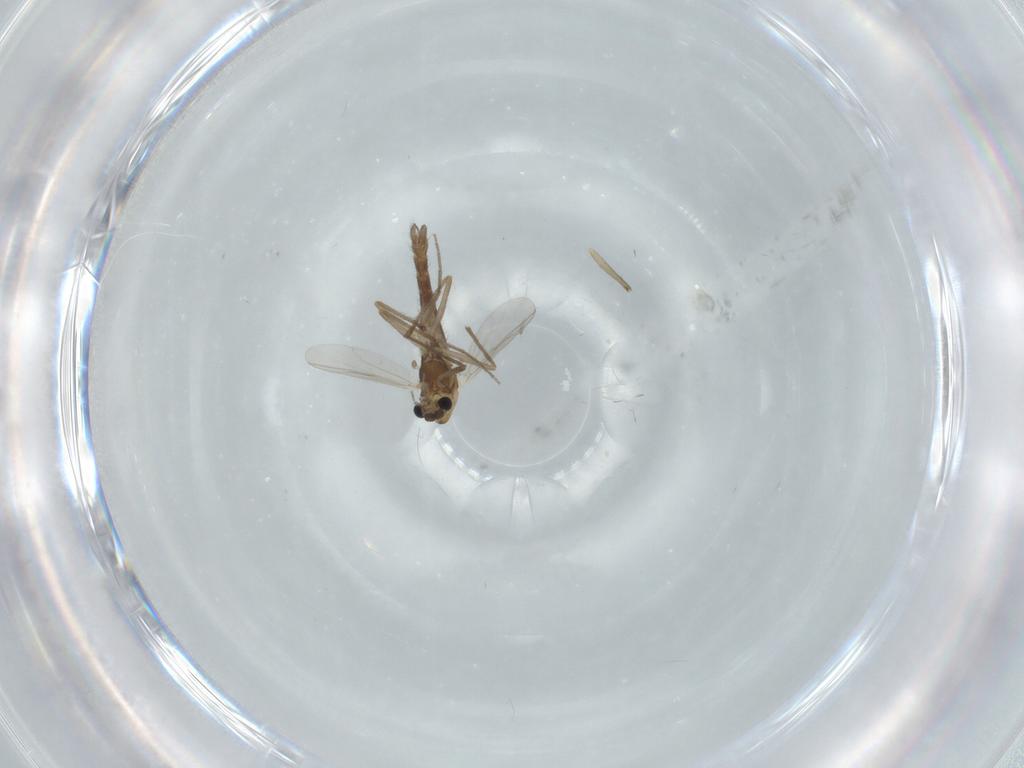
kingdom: Animalia
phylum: Arthropoda
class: Insecta
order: Diptera
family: Chironomidae
